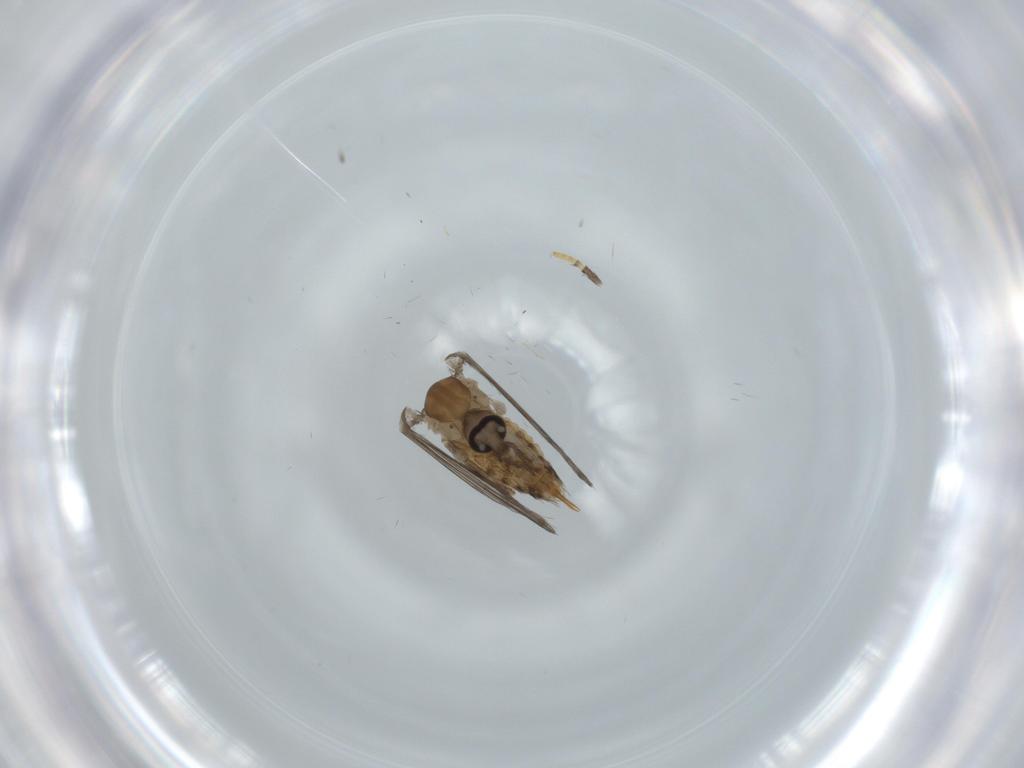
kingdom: Animalia
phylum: Arthropoda
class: Insecta
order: Diptera
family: Psychodidae
